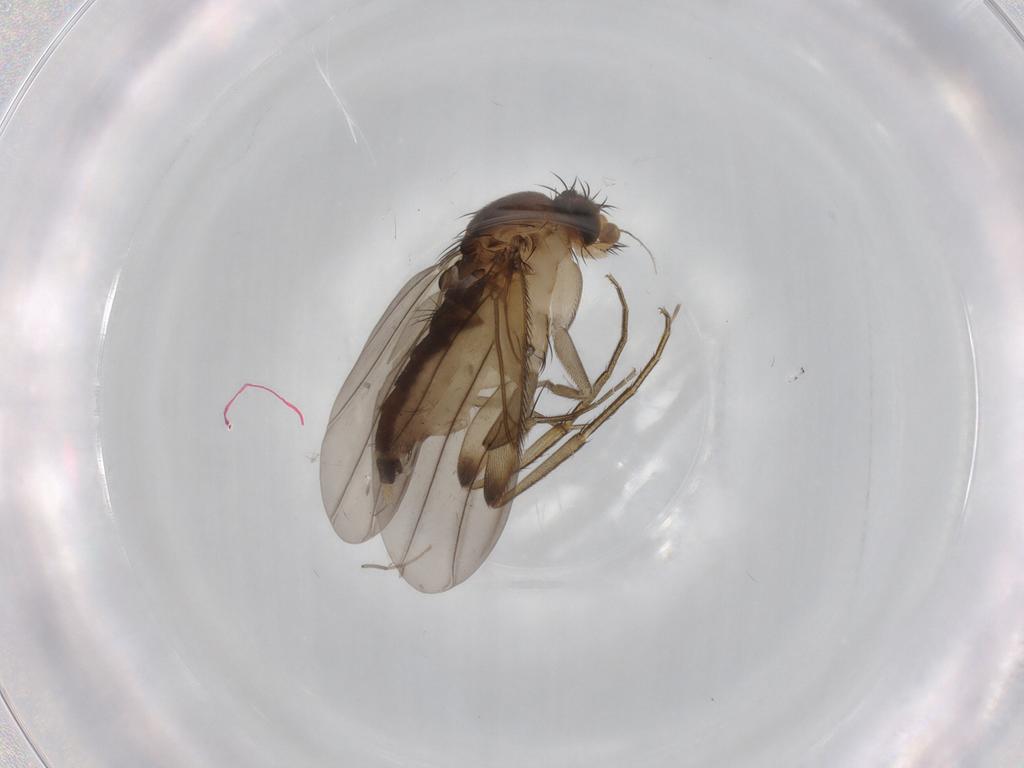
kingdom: Animalia
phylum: Arthropoda
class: Insecta
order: Diptera
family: Phoridae
